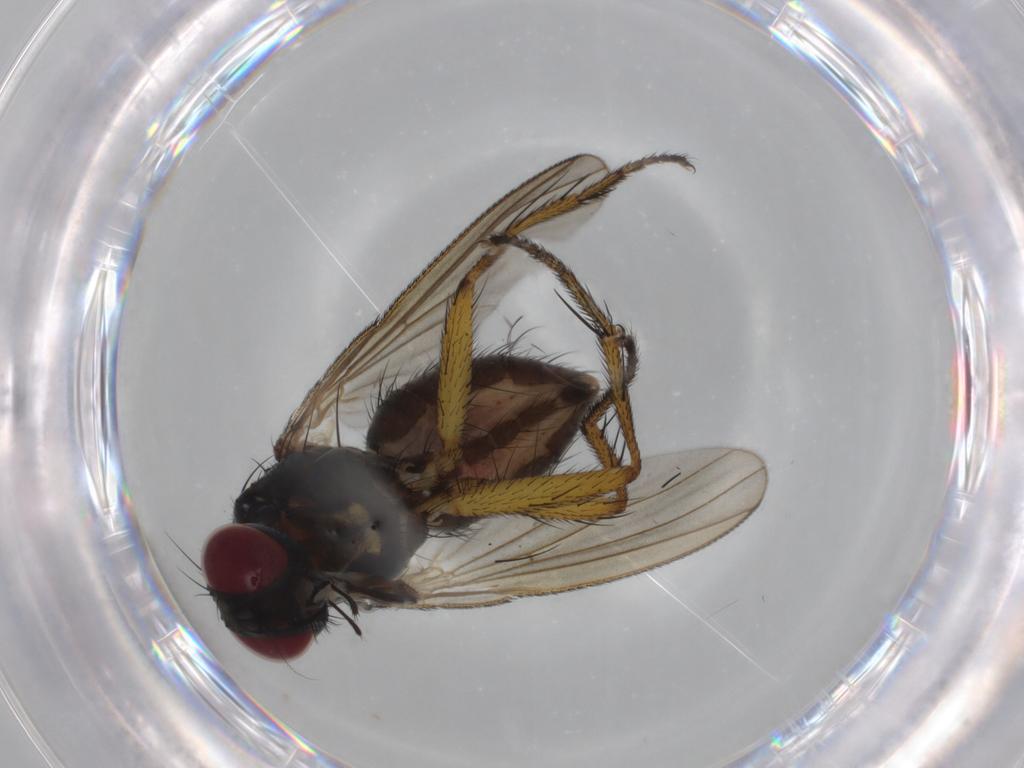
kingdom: Animalia
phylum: Arthropoda
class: Insecta
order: Diptera
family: Muscidae
